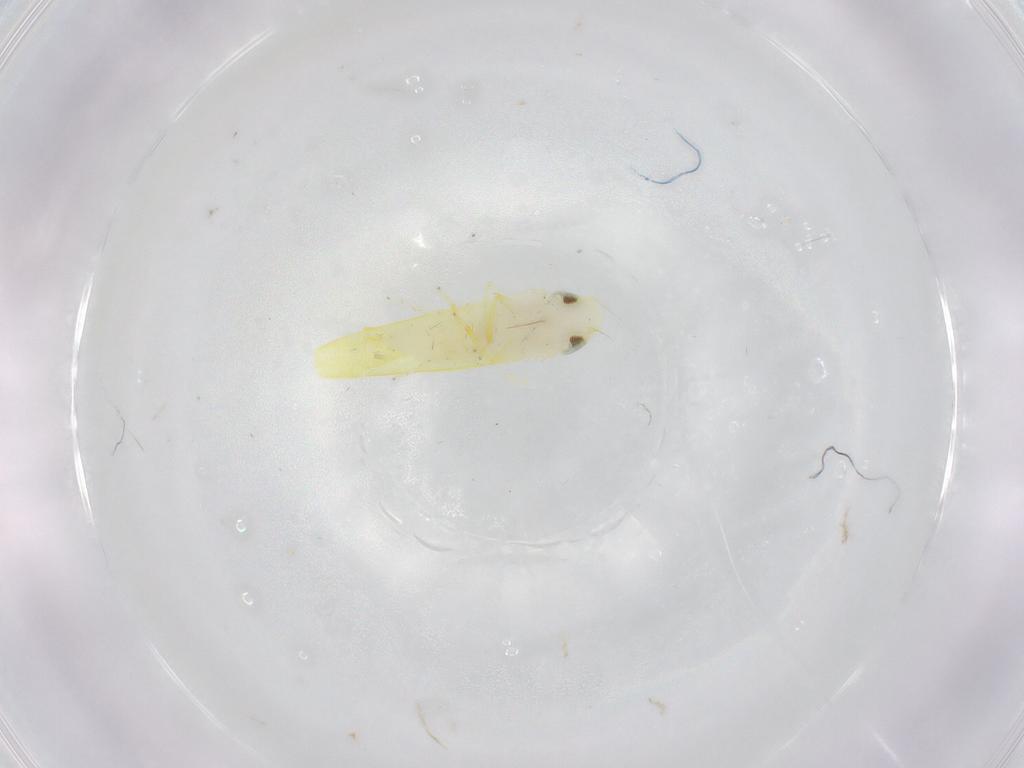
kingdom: Animalia
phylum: Arthropoda
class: Insecta
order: Hemiptera
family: Cicadellidae
